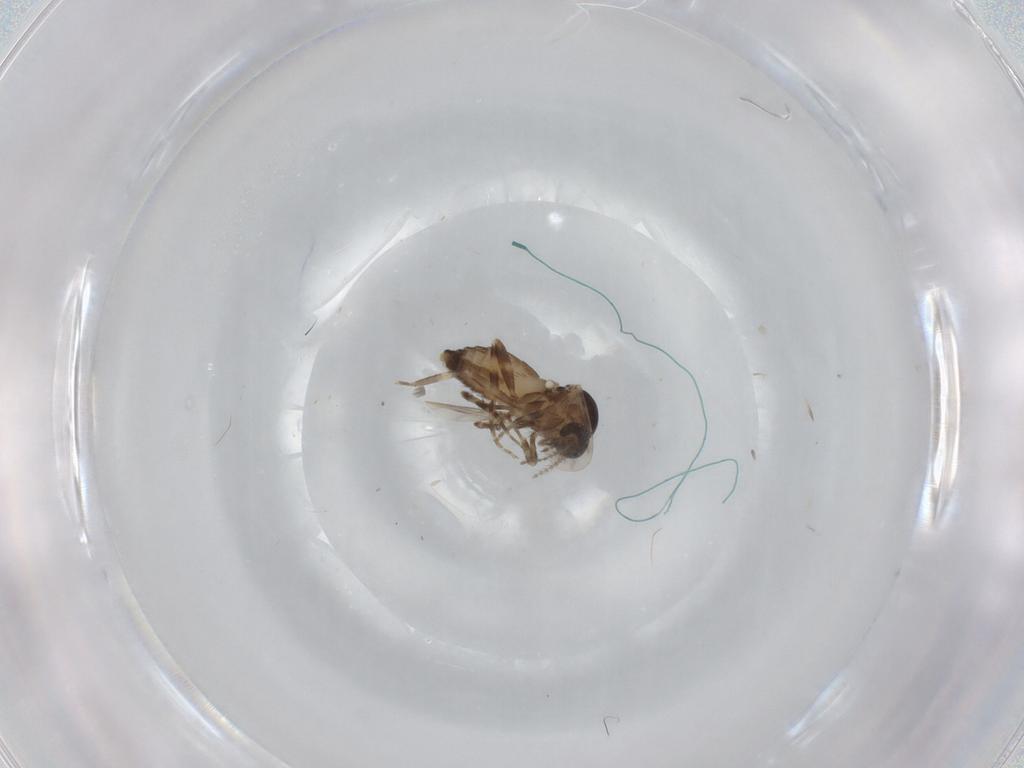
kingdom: Animalia
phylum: Arthropoda
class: Insecta
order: Diptera
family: Ceratopogonidae
